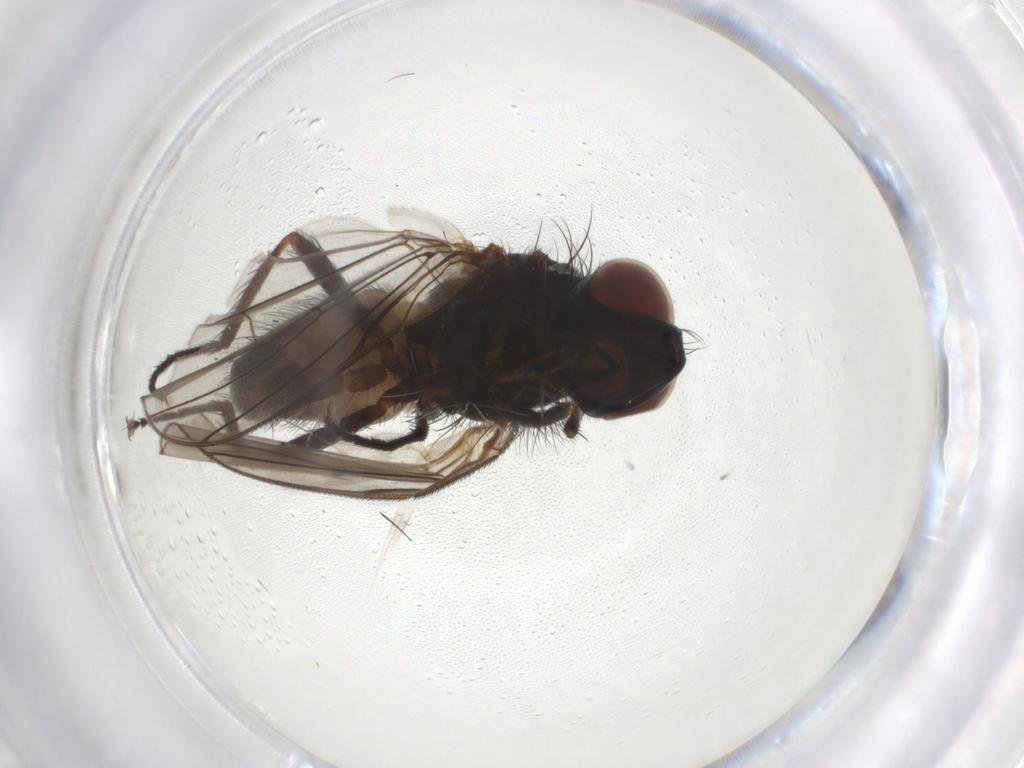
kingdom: Animalia
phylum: Arthropoda
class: Insecta
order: Diptera
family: Anthomyiidae
